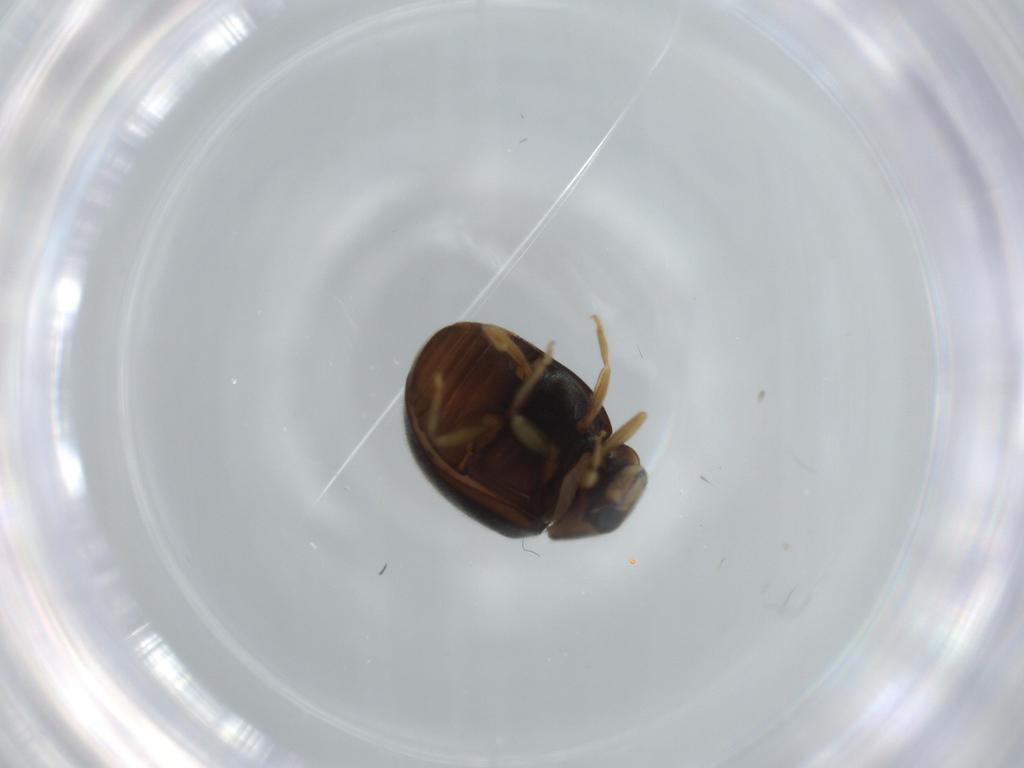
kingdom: Animalia
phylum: Arthropoda
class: Insecta
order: Coleoptera
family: Coccinellidae
